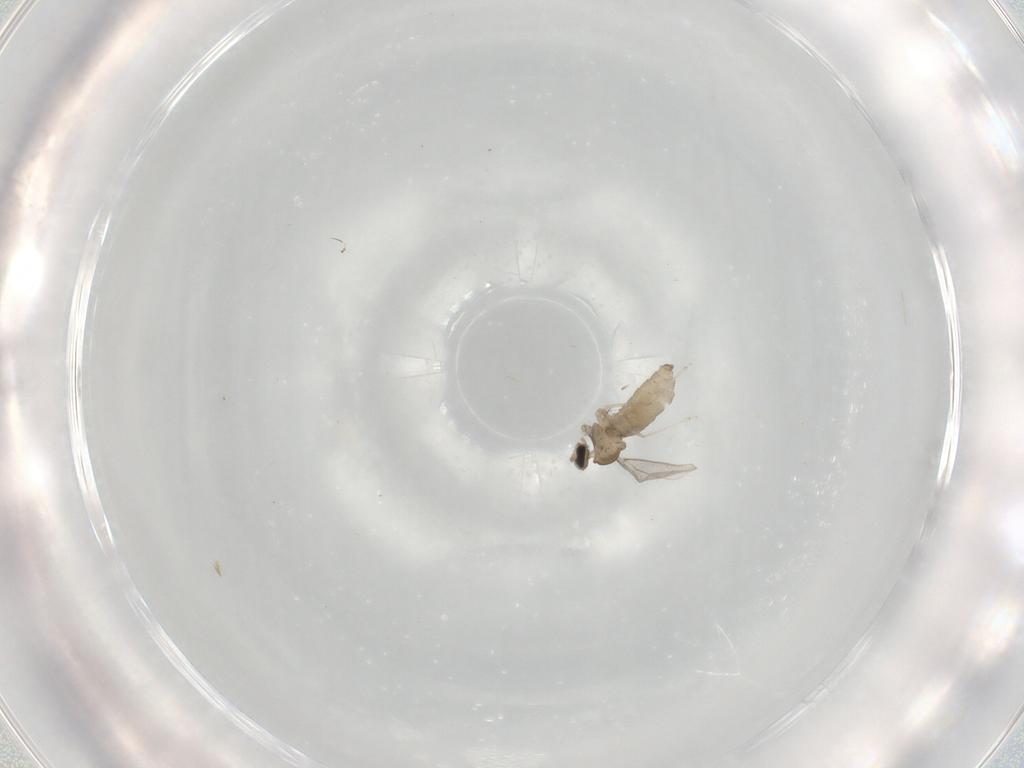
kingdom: Animalia
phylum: Arthropoda
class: Insecta
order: Diptera
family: Cecidomyiidae
